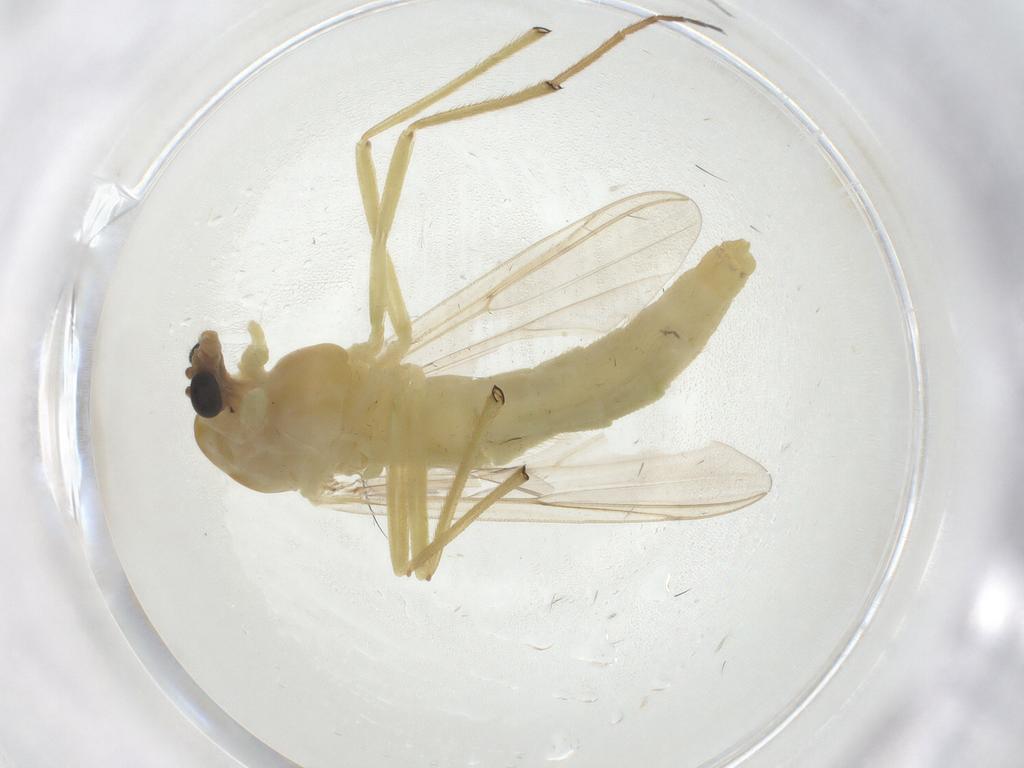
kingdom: Animalia
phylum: Arthropoda
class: Insecta
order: Diptera
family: Chironomidae
